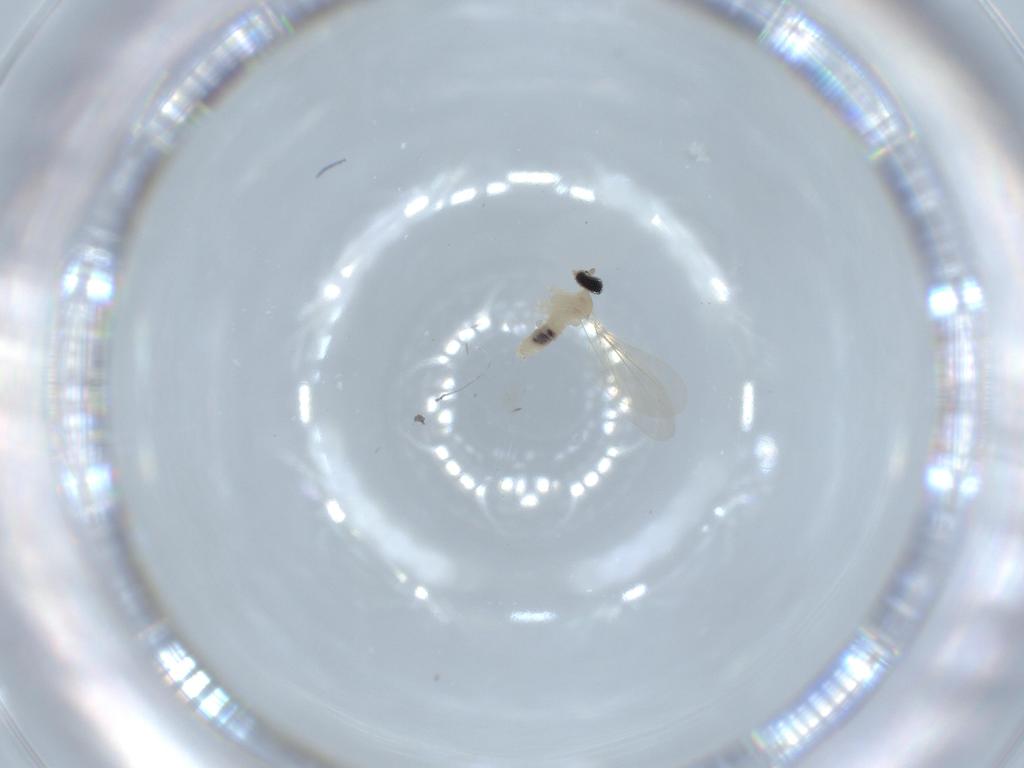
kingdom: Animalia
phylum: Arthropoda
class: Insecta
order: Diptera
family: Cecidomyiidae
